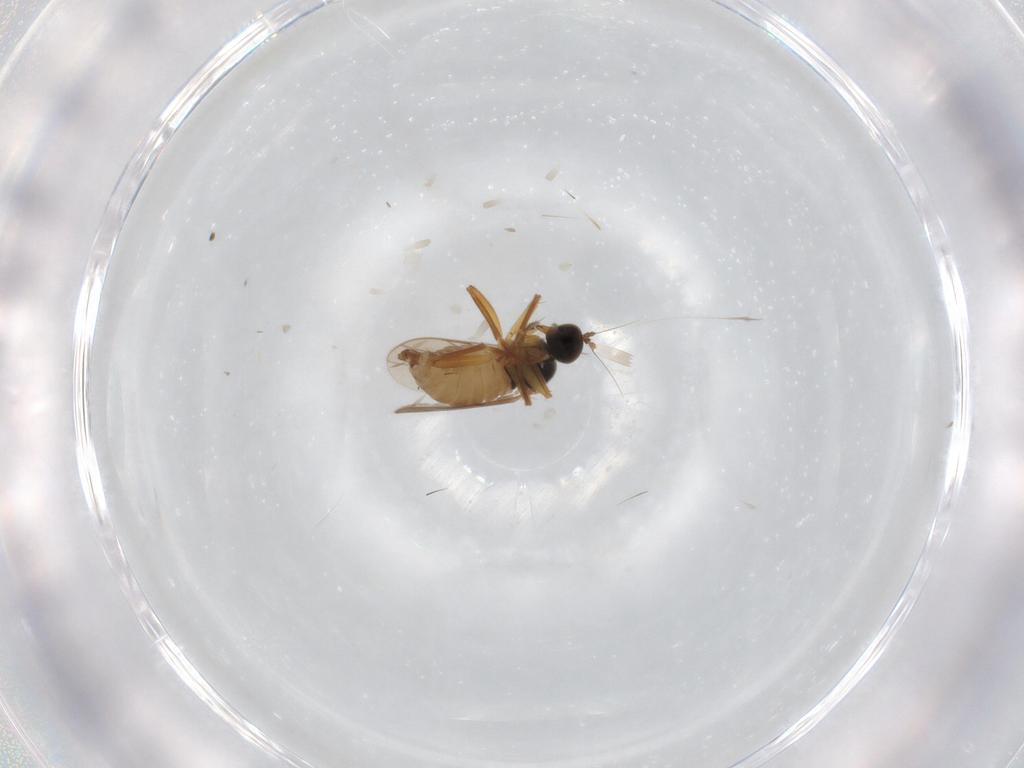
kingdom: Animalia
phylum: Arthropoda
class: Insecta
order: Diptera
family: Hybotidae
